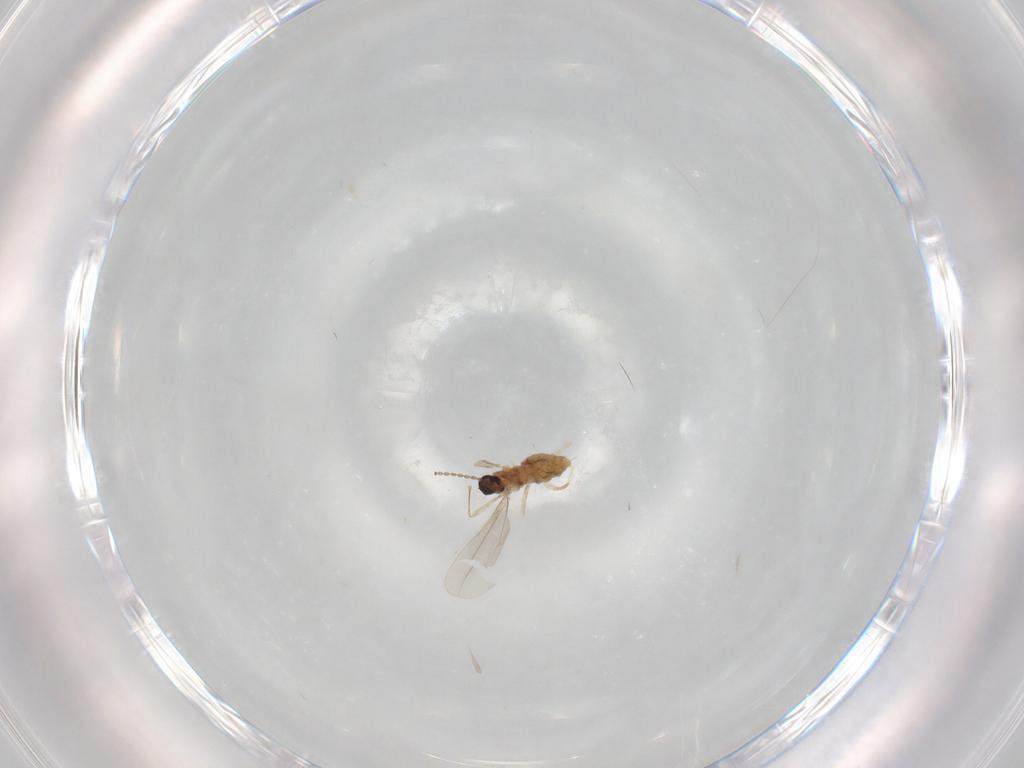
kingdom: Animalia
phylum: Arthropoda
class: Insecta
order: Diptera
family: Cecidomyiidae
